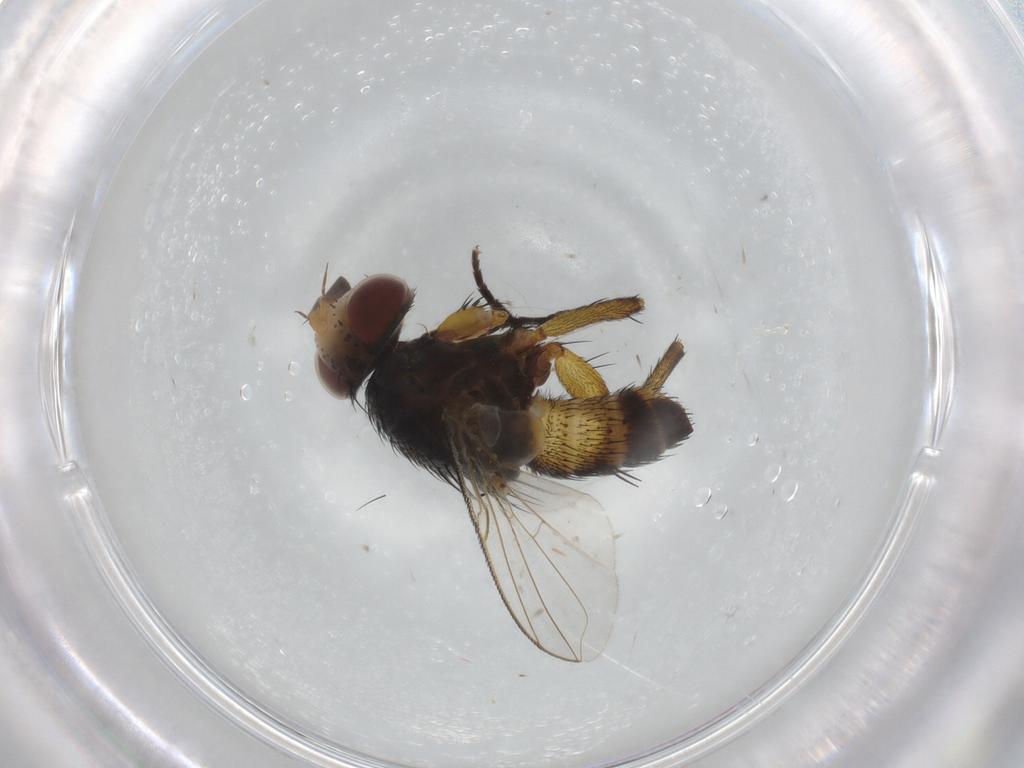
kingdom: Animalia
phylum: Arthropoda
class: Insecta
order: Diptera
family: Tachinidae
